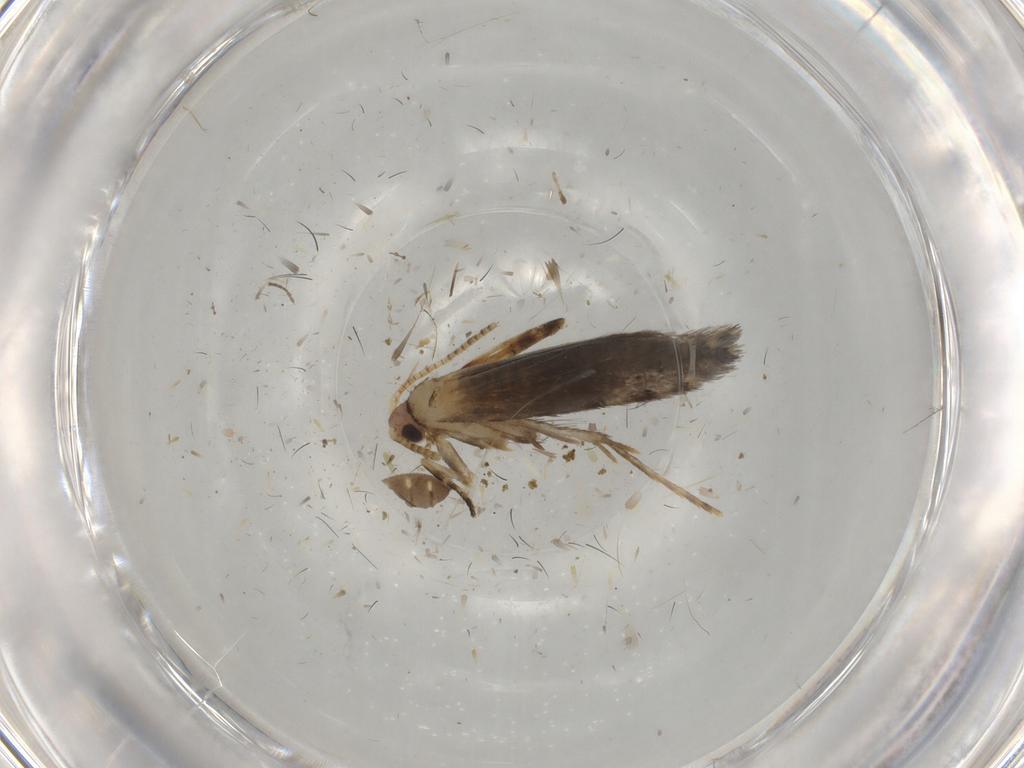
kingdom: Animalia
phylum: Arthropoda
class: Insecta
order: Lepidoptera
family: Tineidae
